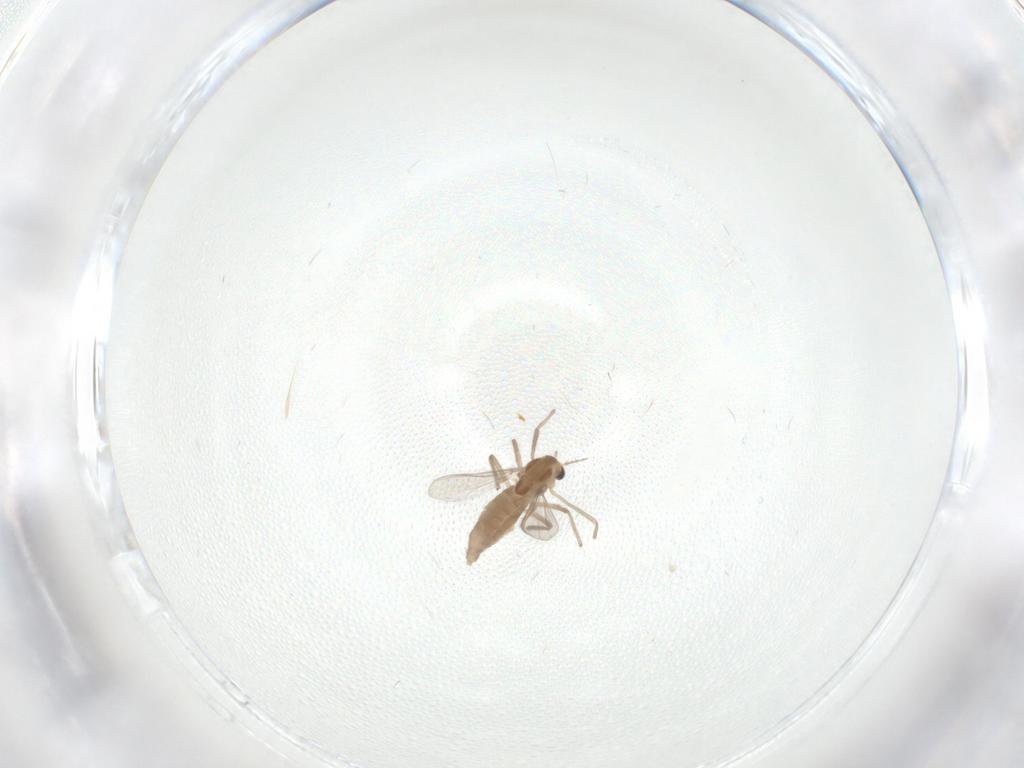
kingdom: Animalia
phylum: Arthropoda
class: Insecta
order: Diptera
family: Chironomidae
